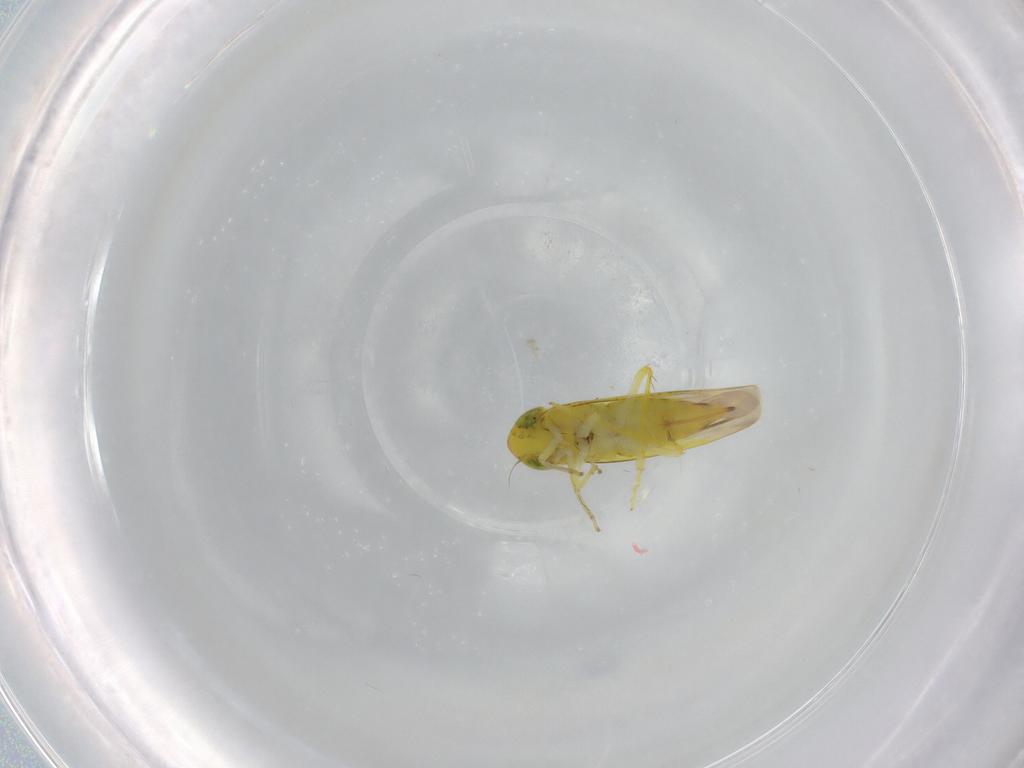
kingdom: Animalia
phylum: Arthropoda
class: Insecta
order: Hemiptera
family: Cicadellidae
